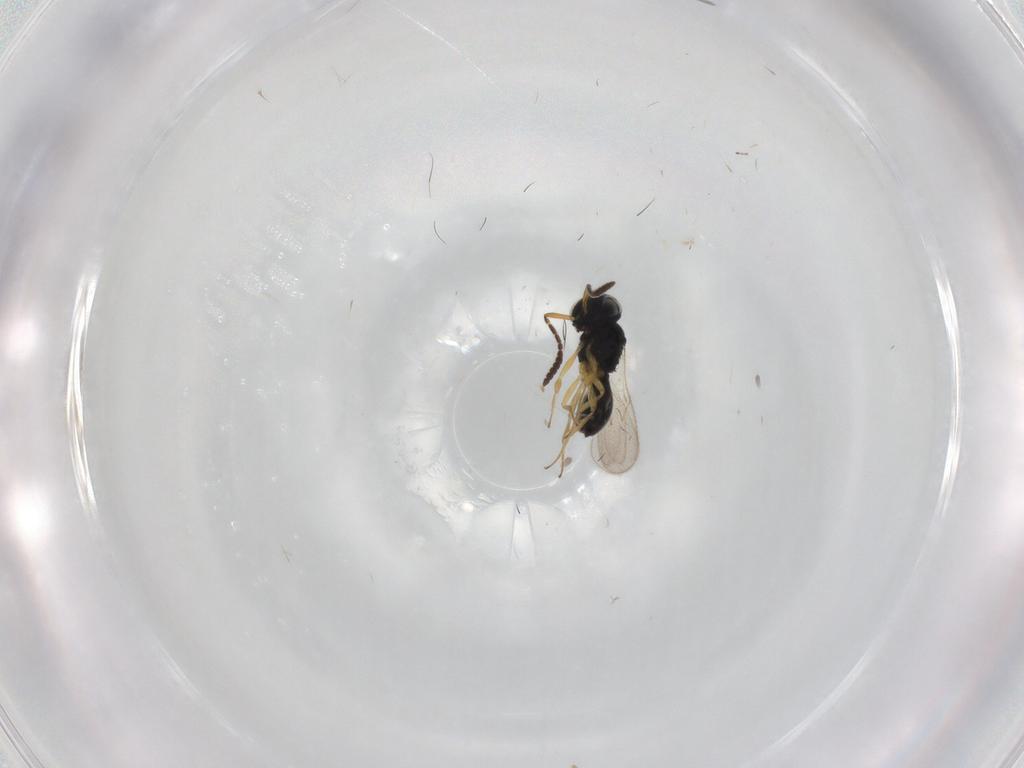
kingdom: Animalia
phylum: Arthropoda
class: Insecta
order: Hymenoptera
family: Scelionidae
